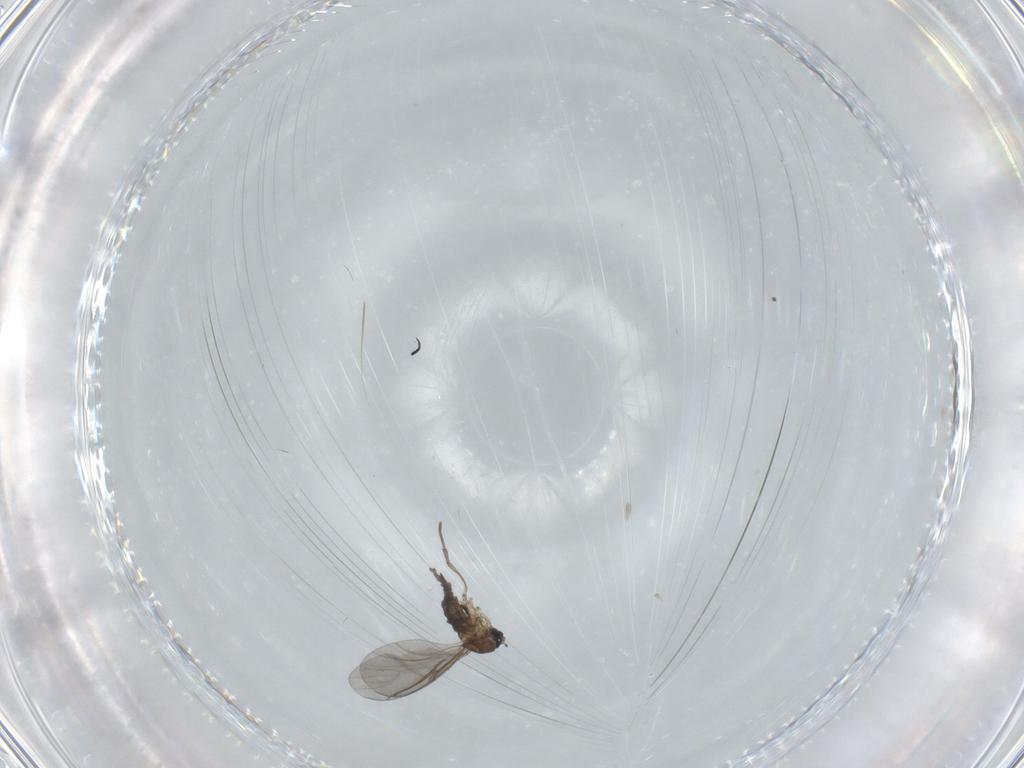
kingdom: Animalia
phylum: Arthropoda
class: Insecta
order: Diptera
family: Sciaridae
